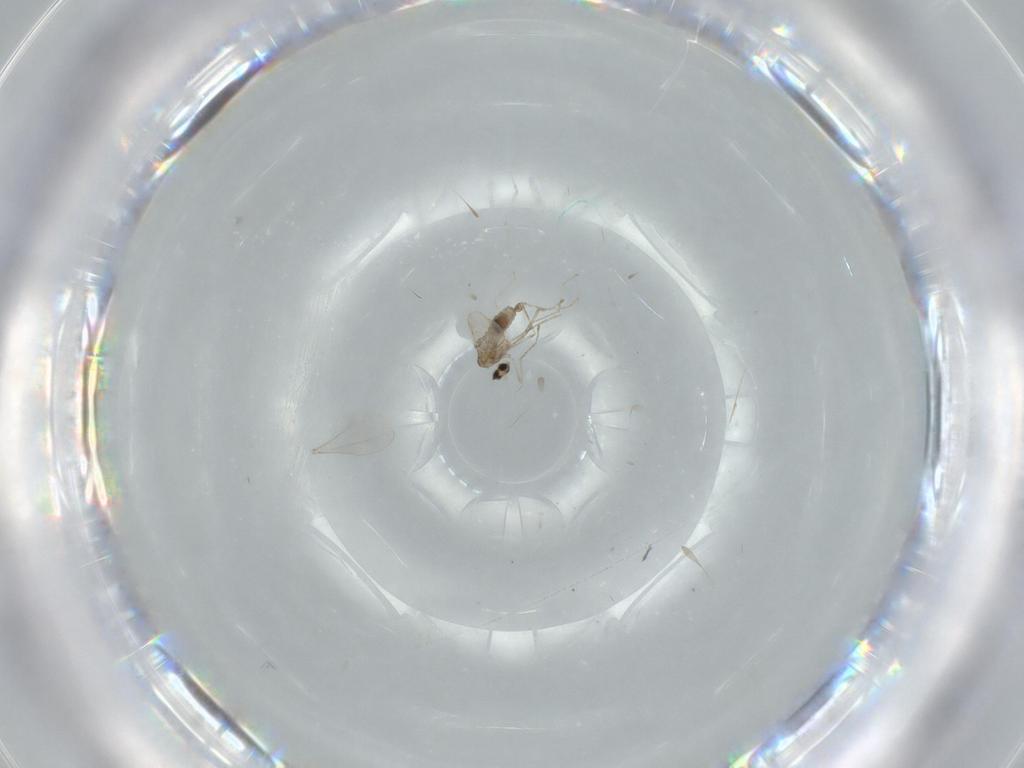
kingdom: Animalia
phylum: Arthropoda
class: Insecta
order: Diptera
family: Cecidomyiidae
